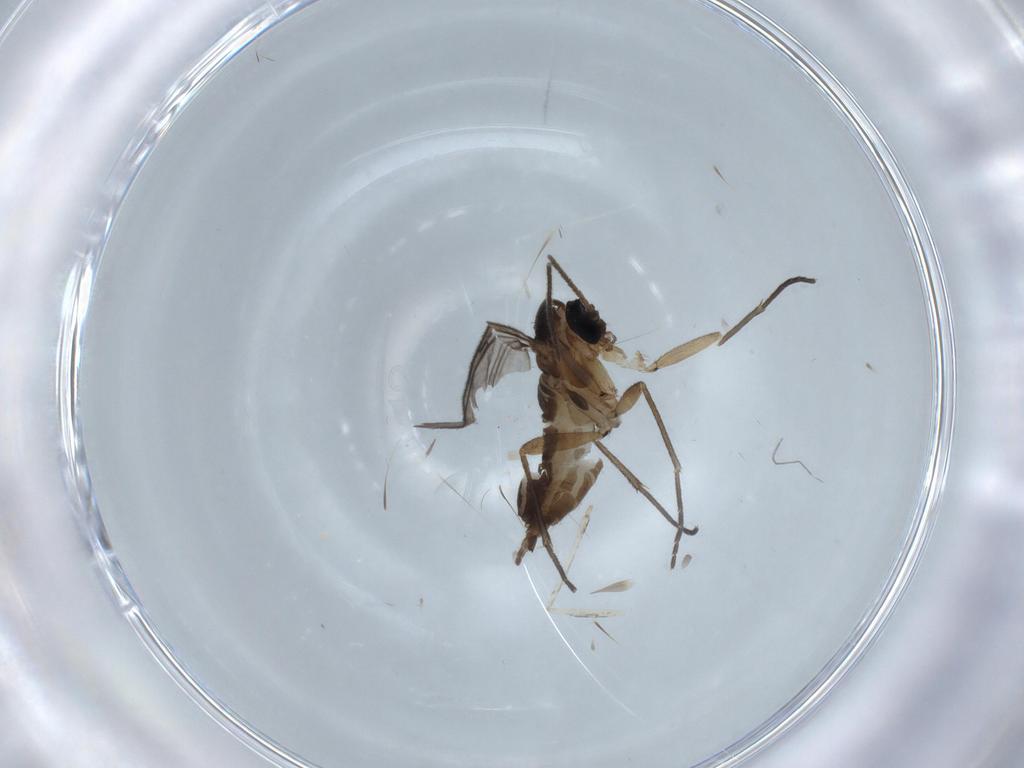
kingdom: Animalia
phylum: Arthropoda
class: Insecta
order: Diptera
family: Sciaridae
